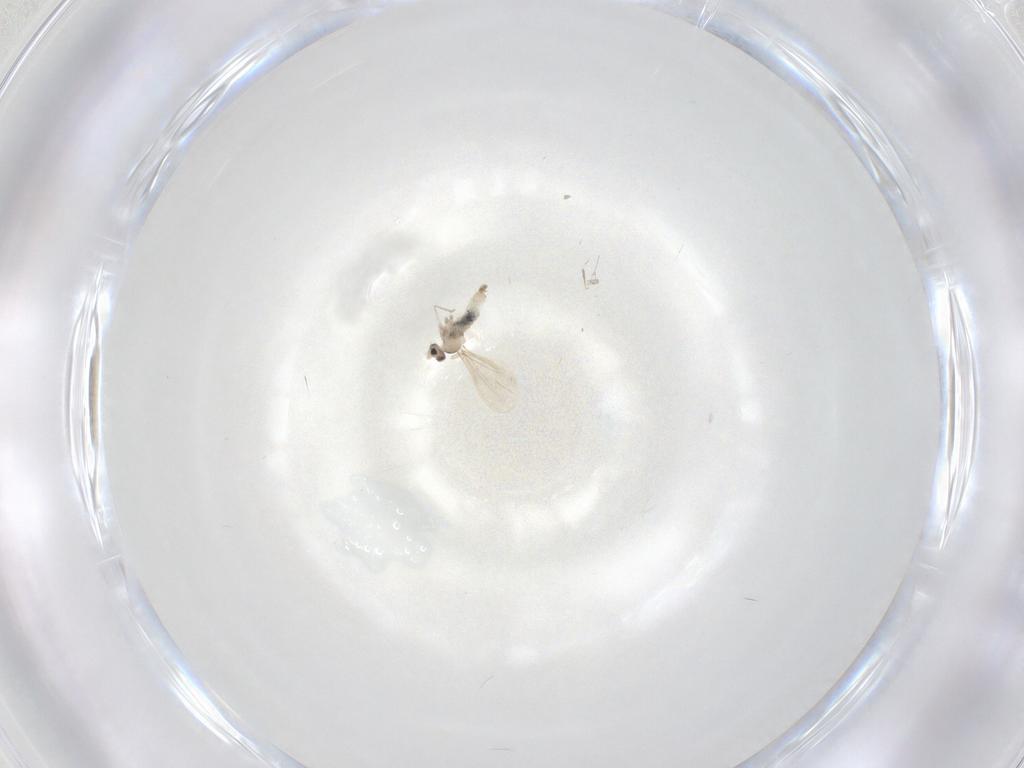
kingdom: Animalia
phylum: Arthropoda
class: Insecta
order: Diptera
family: Cecidomyiidae
